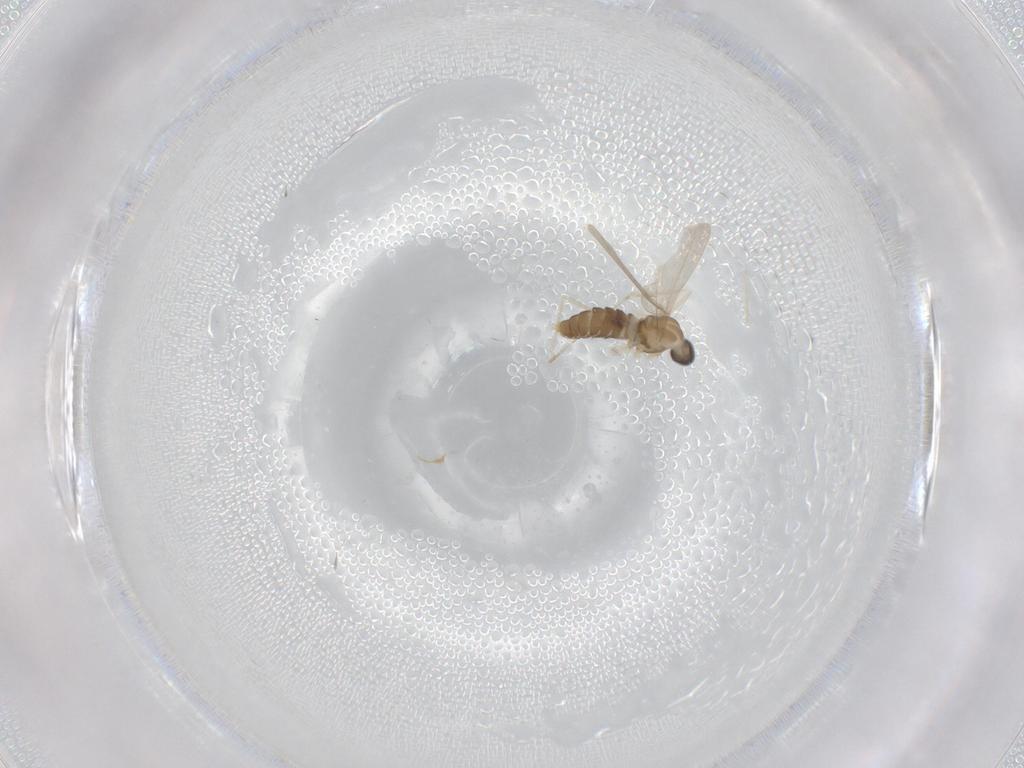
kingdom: Animalia
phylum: Arthropoda
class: Insecta
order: Diptera
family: Cecidomyiidae
